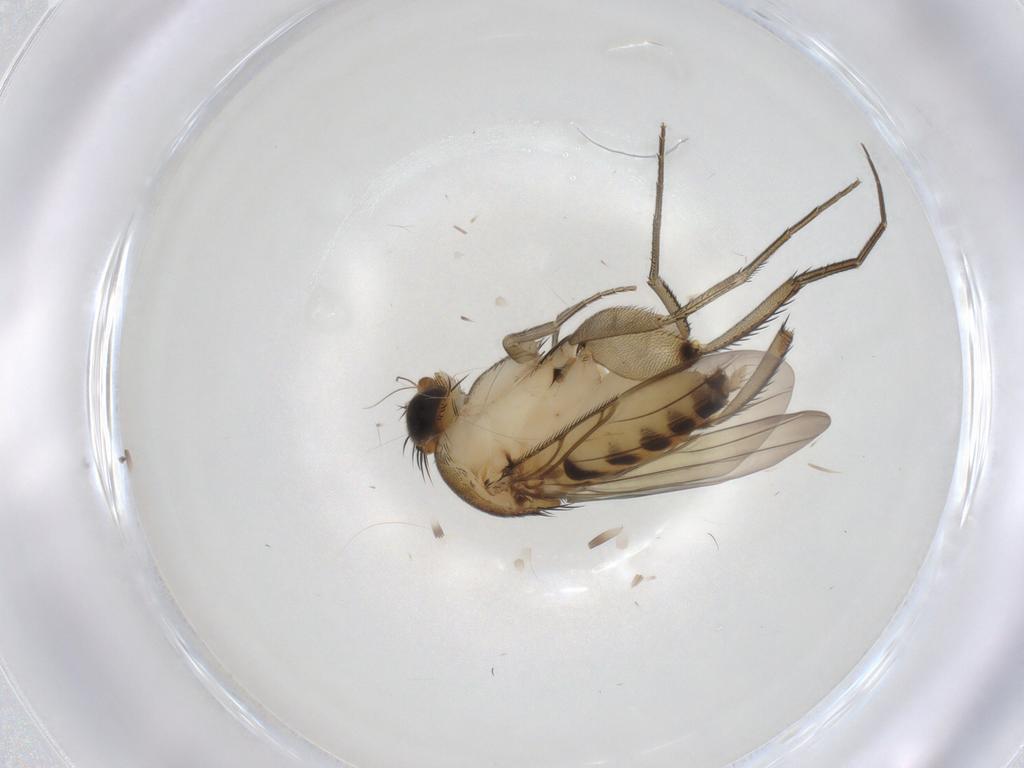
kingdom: Animalia
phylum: Arthropoda
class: Insecta
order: Diptera
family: Phoridae
